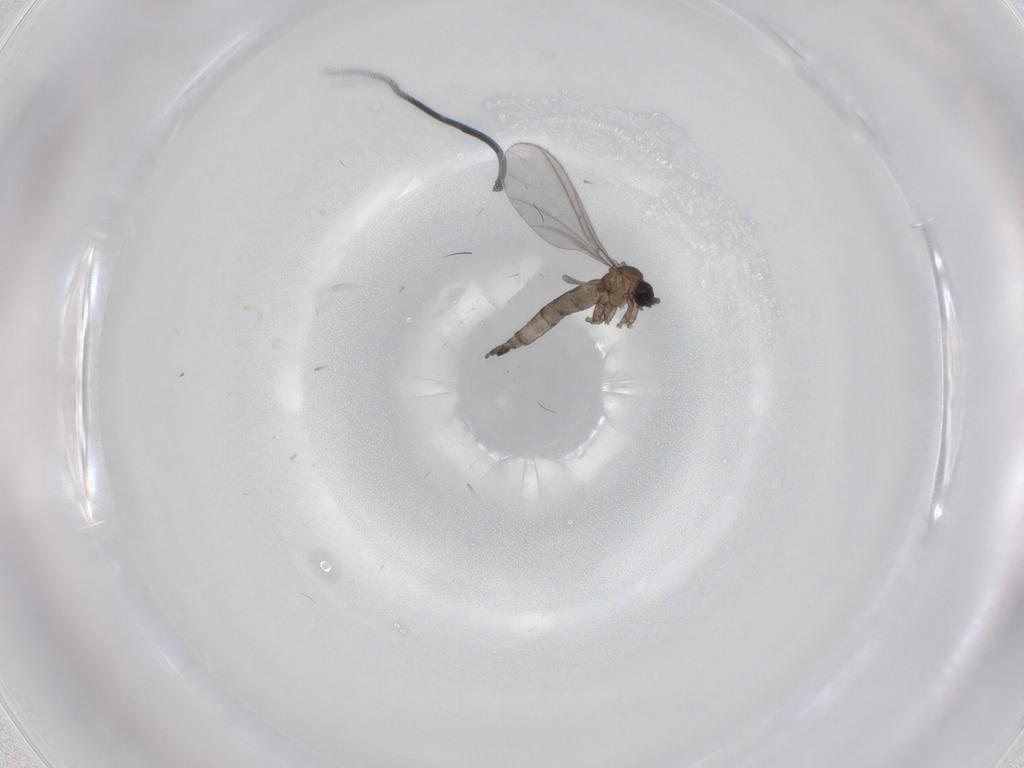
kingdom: Animalia
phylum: Arthropoda
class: Insecta
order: Diptera
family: Sciaridae
